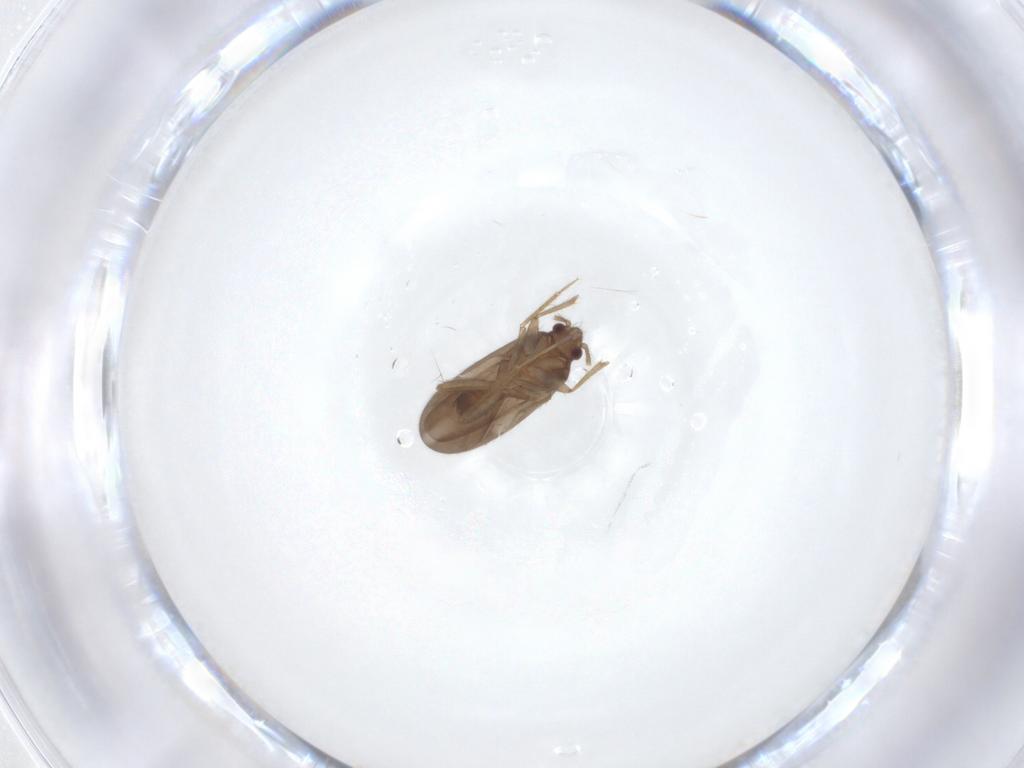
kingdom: Animalia
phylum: Arthropoda
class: Insecta
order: Hemiptera
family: Ceratocombidae
